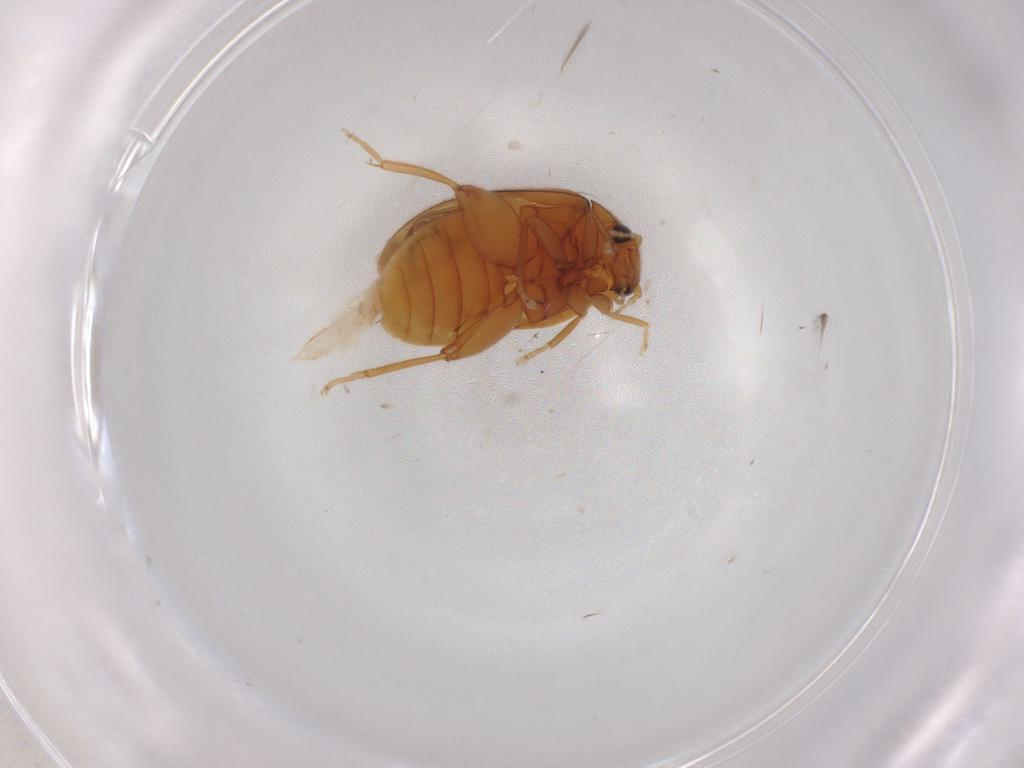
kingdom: Animalia
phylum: Arthropoda
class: Insecta
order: Coleoptera
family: Scirtidae
